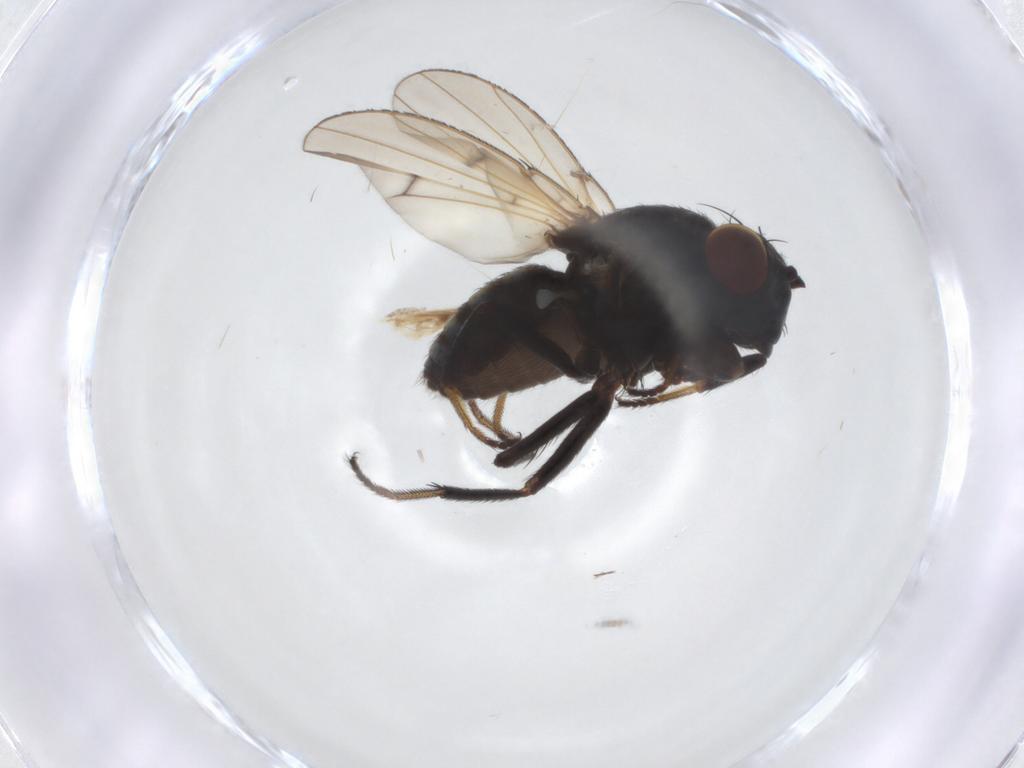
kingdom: Animalia
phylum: Arthropoda
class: Insecta
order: Diptera
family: Ephydridae
